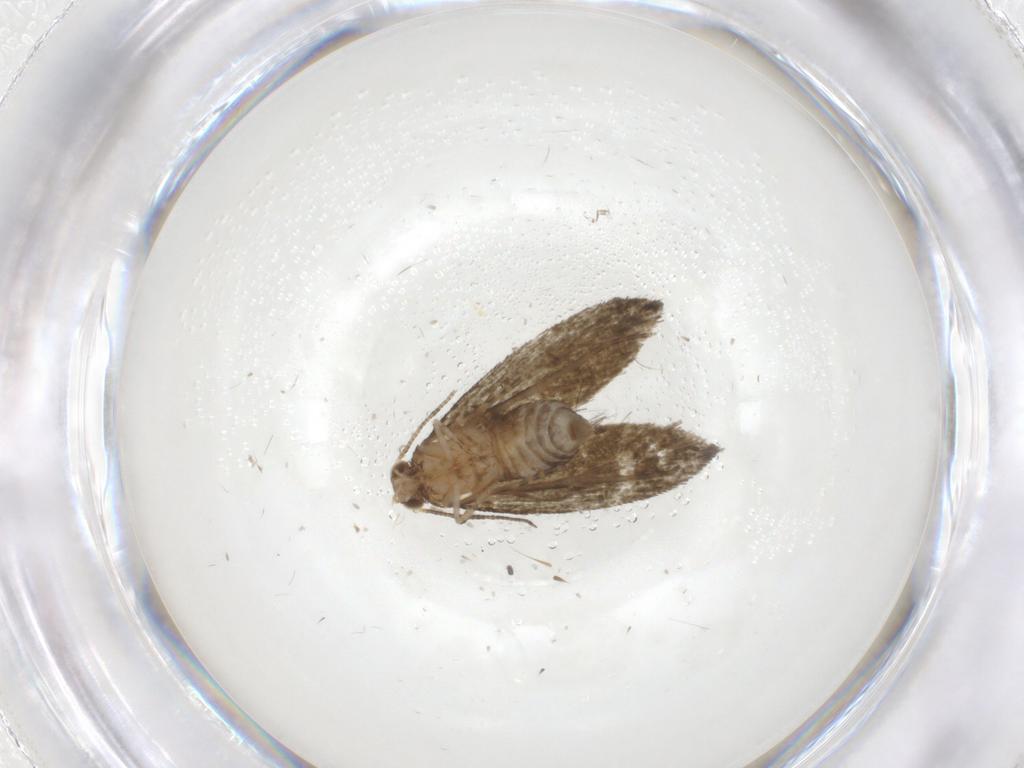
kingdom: Animalia
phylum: Arthropoda
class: Insecta
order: Lepidoptera
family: Tineidae
